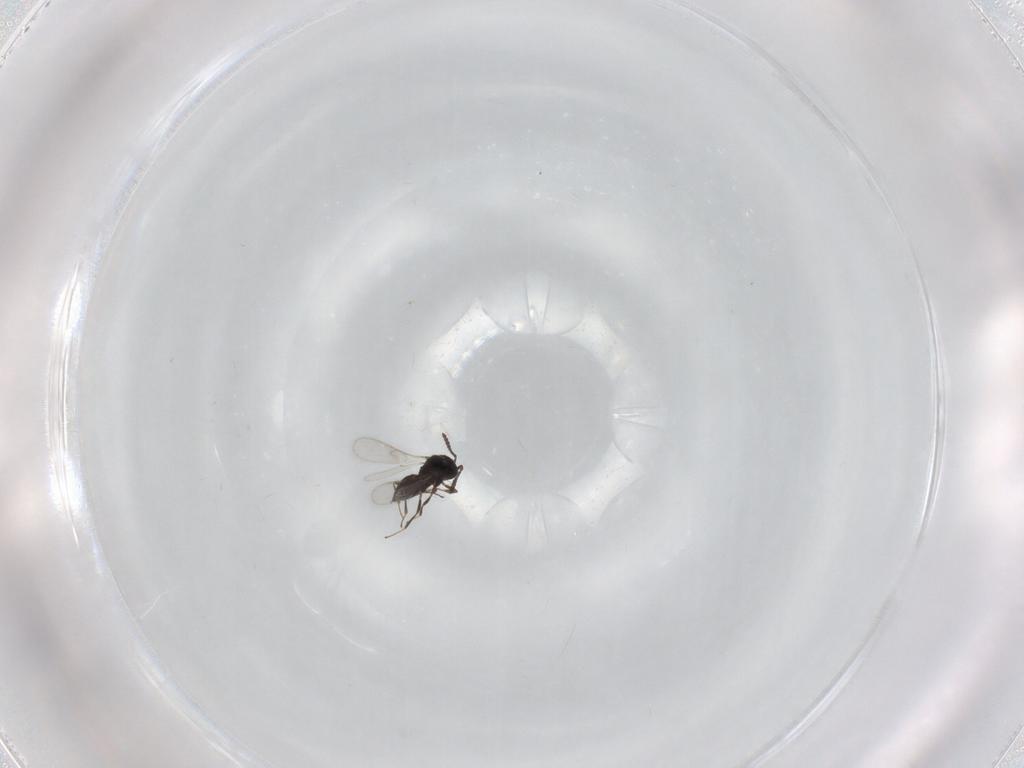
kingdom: Animalia
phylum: Arthropoda
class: Insecta
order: Hymenoptera
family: Scelionidae
